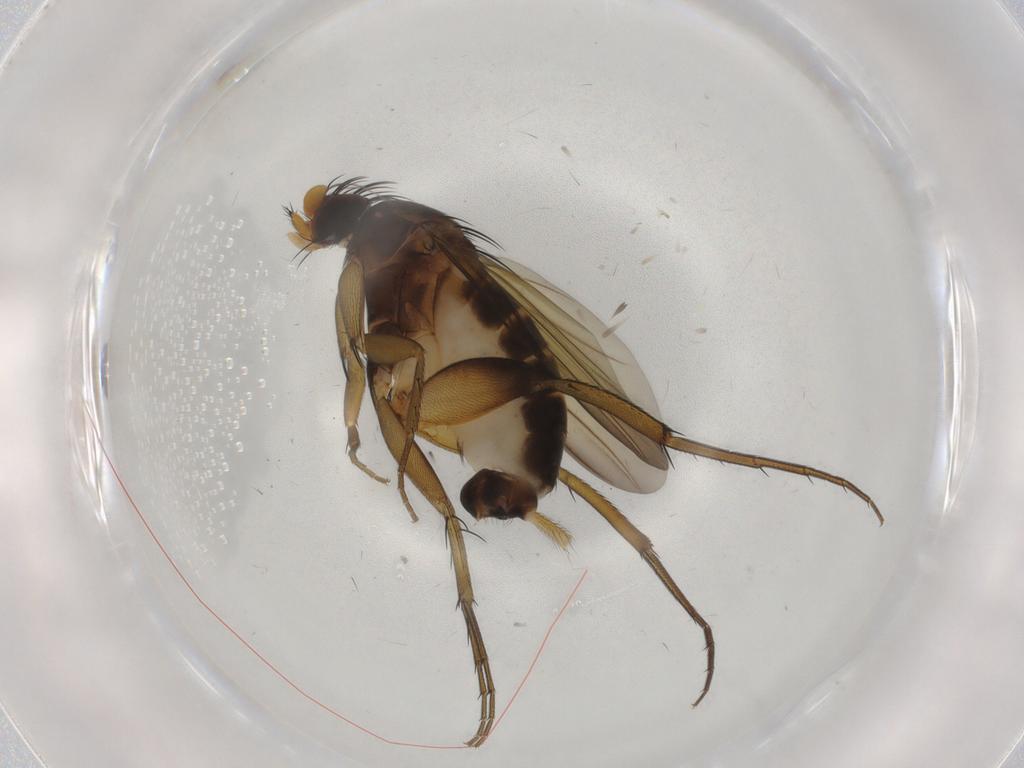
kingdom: Animalia
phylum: Arthropoda
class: Insecta
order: Diptera
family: Phoridae
